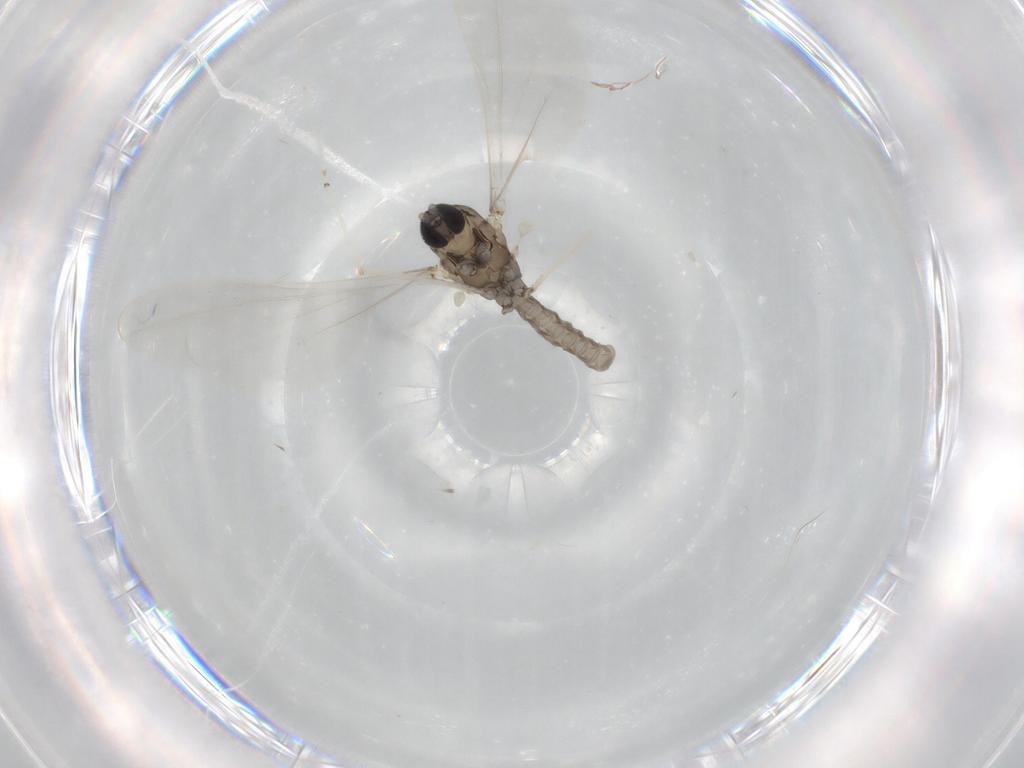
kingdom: Animalia
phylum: Arthropoda
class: Insecta
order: Diptera
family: Cecidomyiidae
